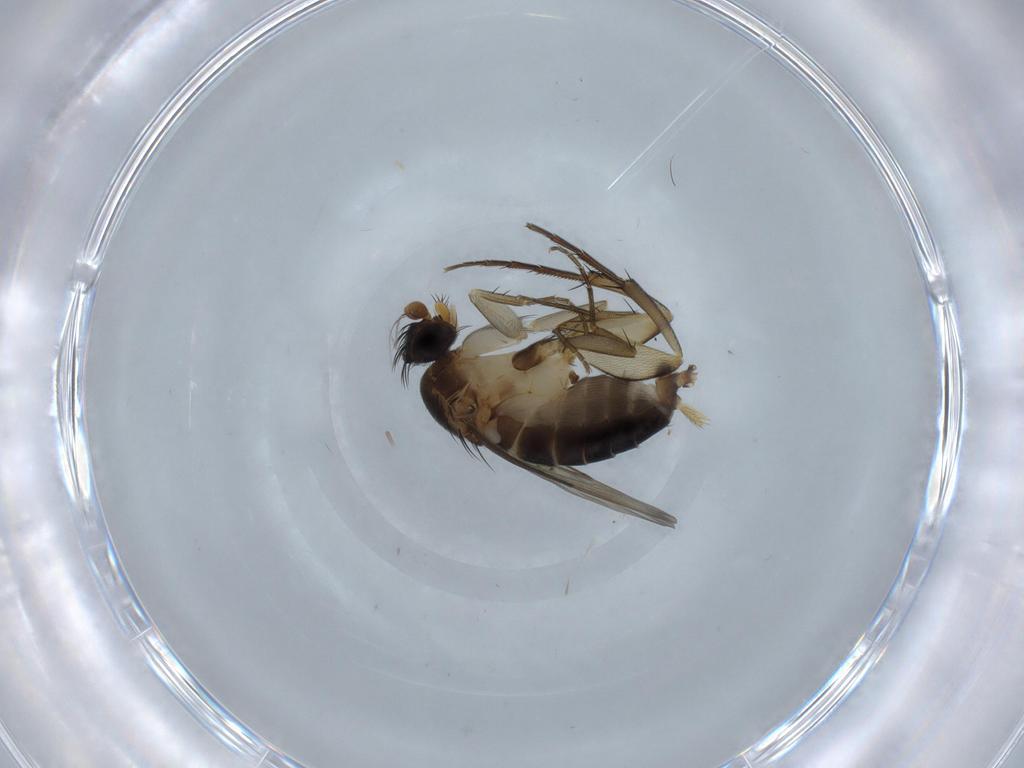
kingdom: Animalia
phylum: Arthropoda
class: Insecta
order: Diptera
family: Phoridae
